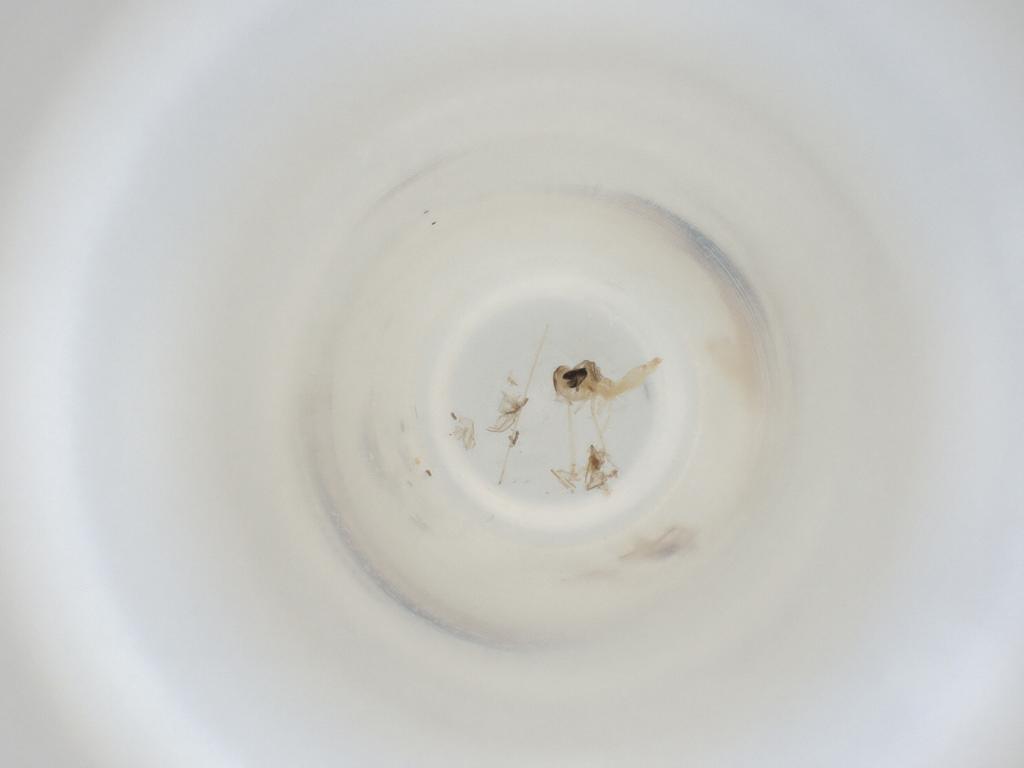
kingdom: Animalia
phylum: Arthropoda
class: Insecta
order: Diptera
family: Cecidomyiidae
